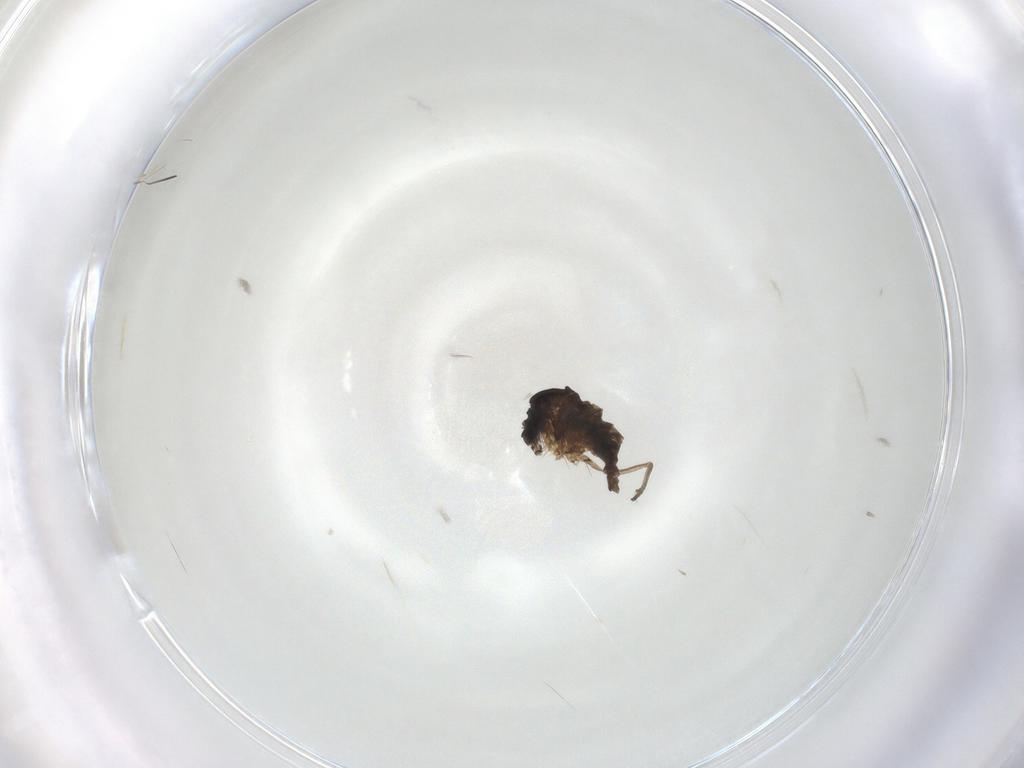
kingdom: Animalia
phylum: Arthropoda
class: Insecta
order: Diptera
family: Sciaridae
